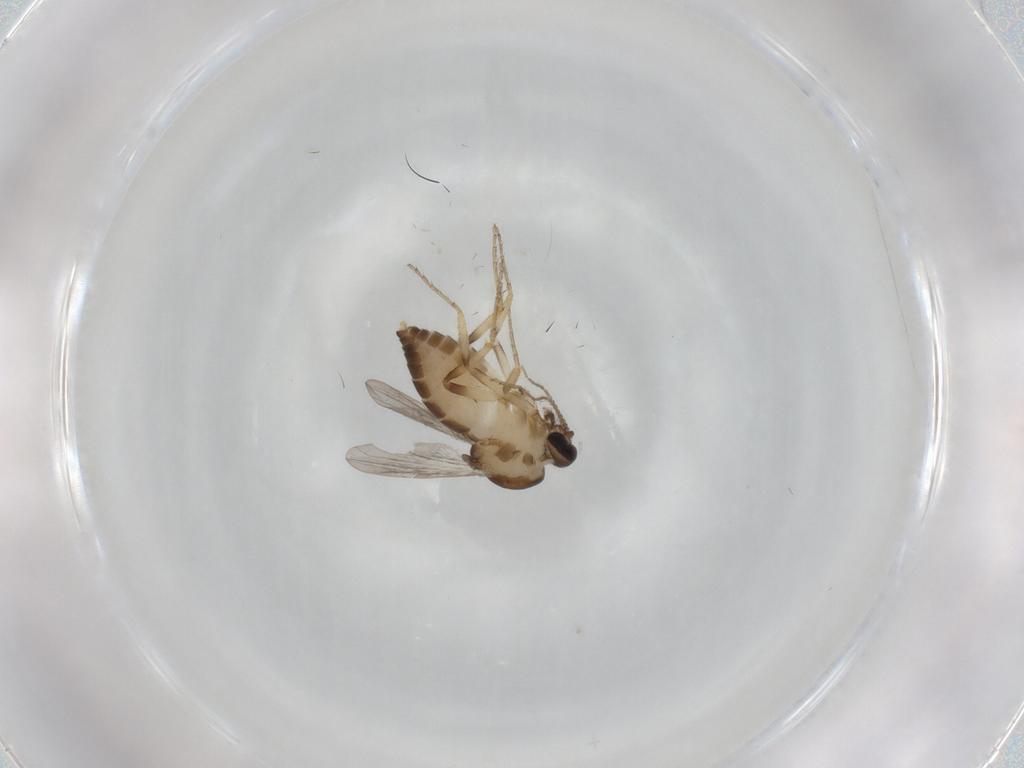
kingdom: Animalia
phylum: Arthropoda
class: Insecta
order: Diptera
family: Ceratopogonidae
